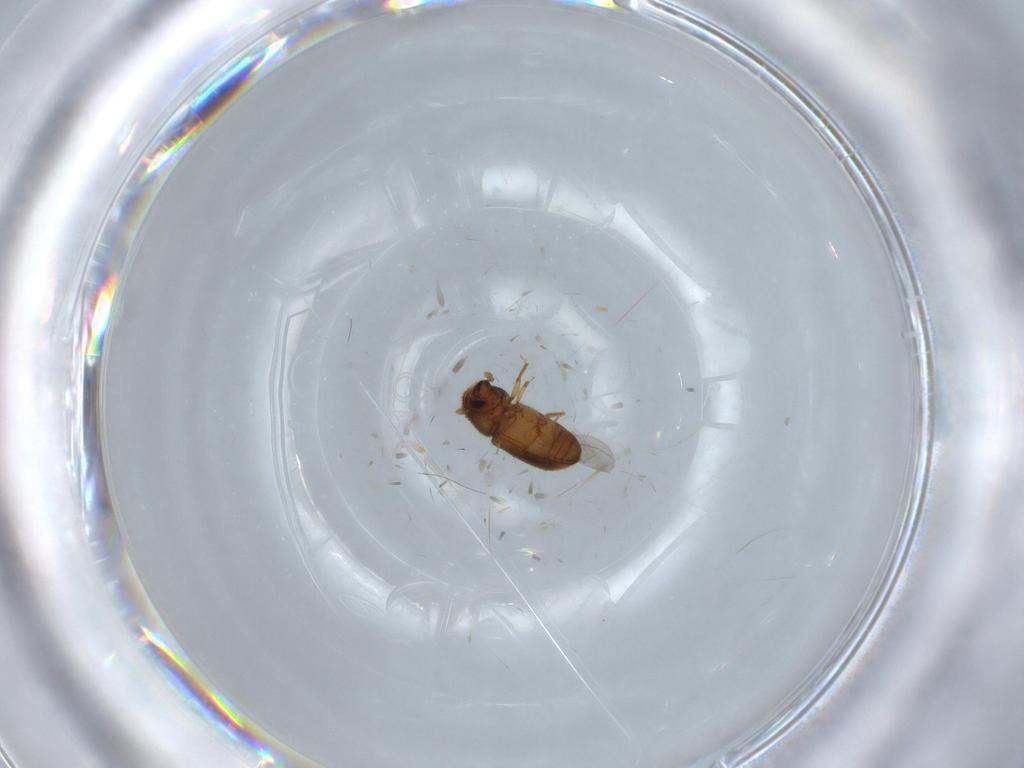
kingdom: Animalia
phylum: Arthropoda
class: Insecta
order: Coleoptera
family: Curculionidae
